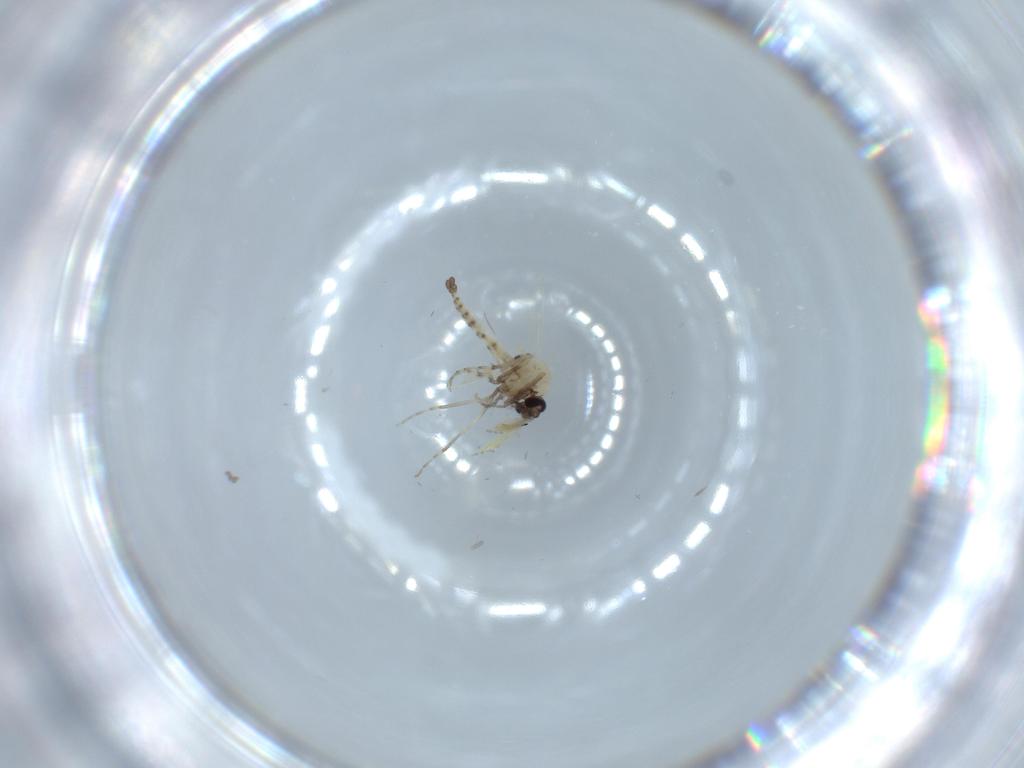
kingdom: Animalia
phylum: Arthropoda
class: Insecta
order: Diptera
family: Ceratopogonidae
